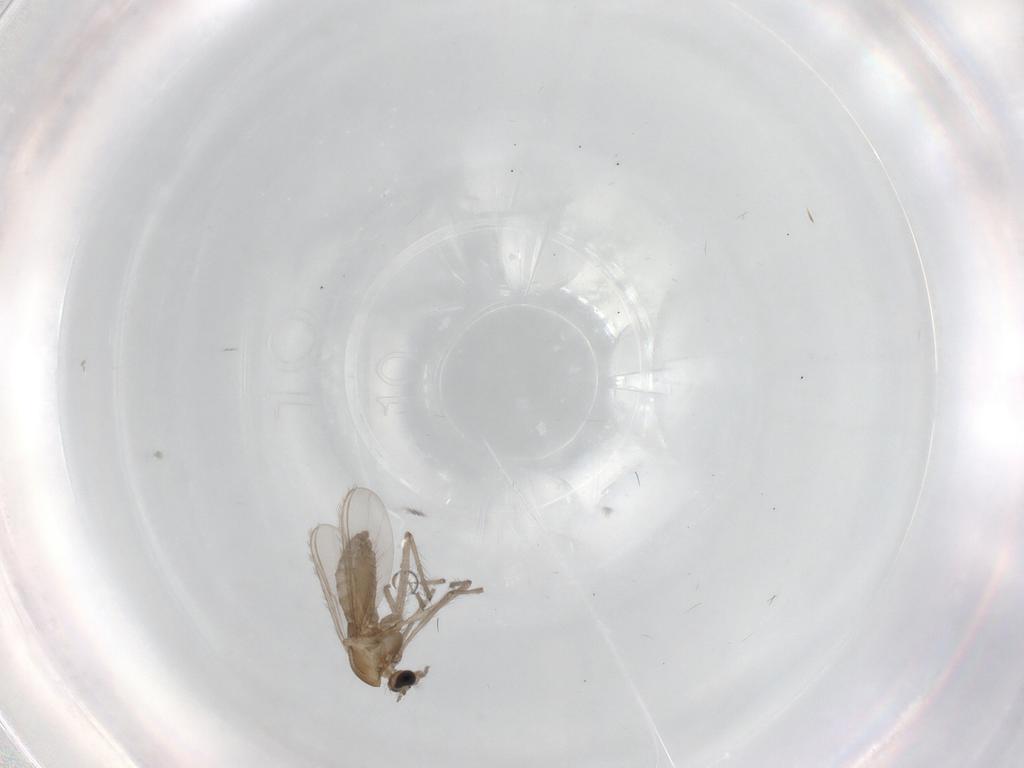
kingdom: Animalia
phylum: Arthropoda
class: Insecta
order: Diptera
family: Chironomidae
